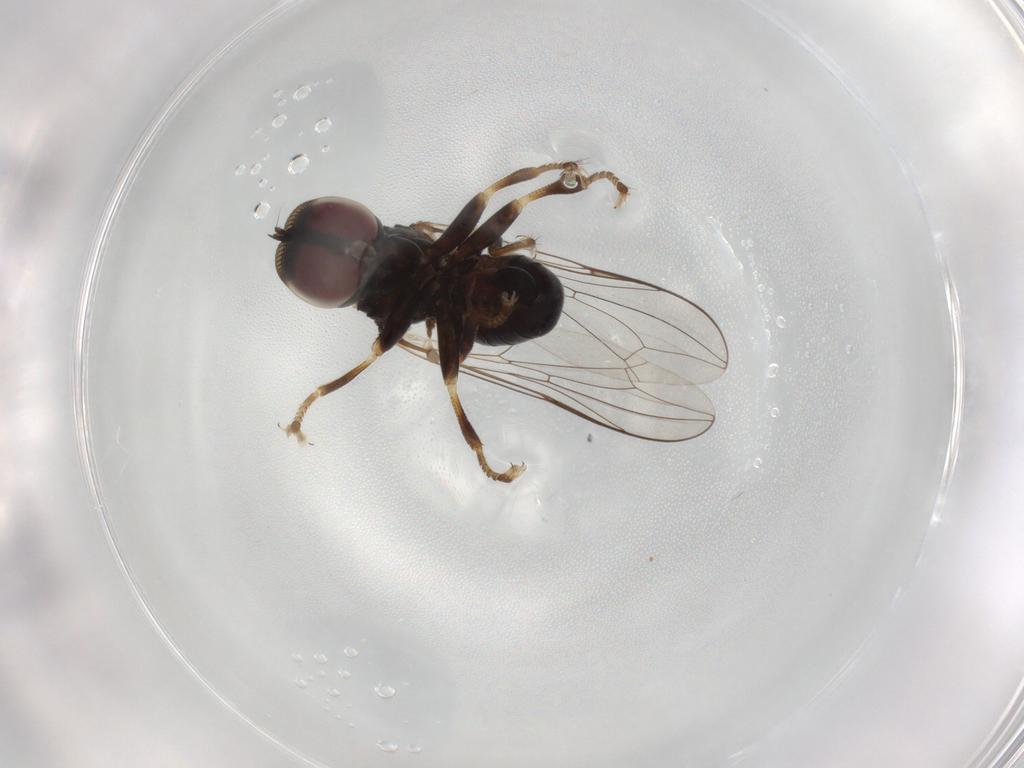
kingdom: Animalia
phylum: Arthropoda
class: Insecta
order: Diptera
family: Pipunculidae
